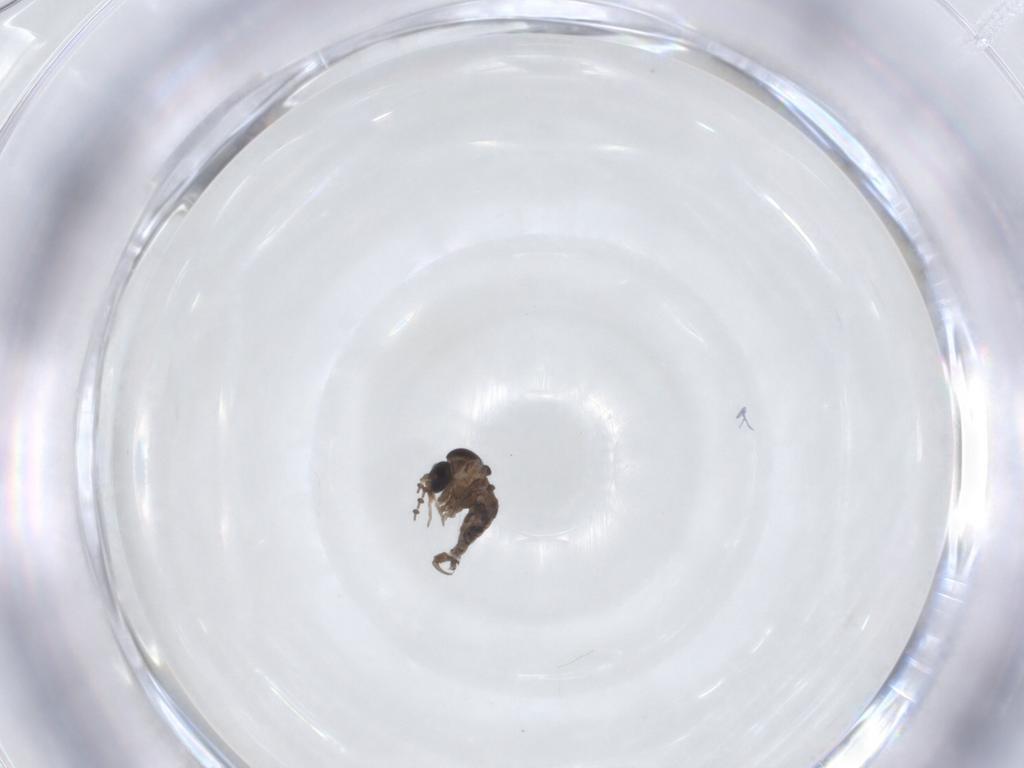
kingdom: Animalia
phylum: Arthropoda
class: Insecta
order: Diptera
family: Psychodidae
